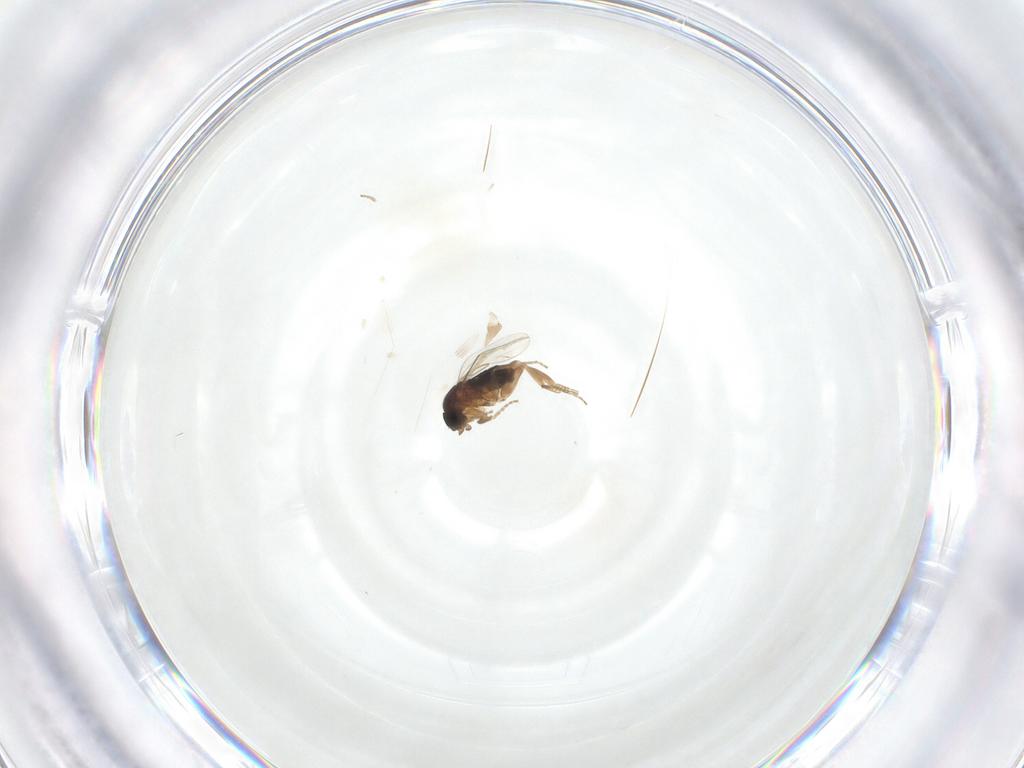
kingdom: Animalia
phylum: Arthropoda
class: Insecta
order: Diptera
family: Phoridae
